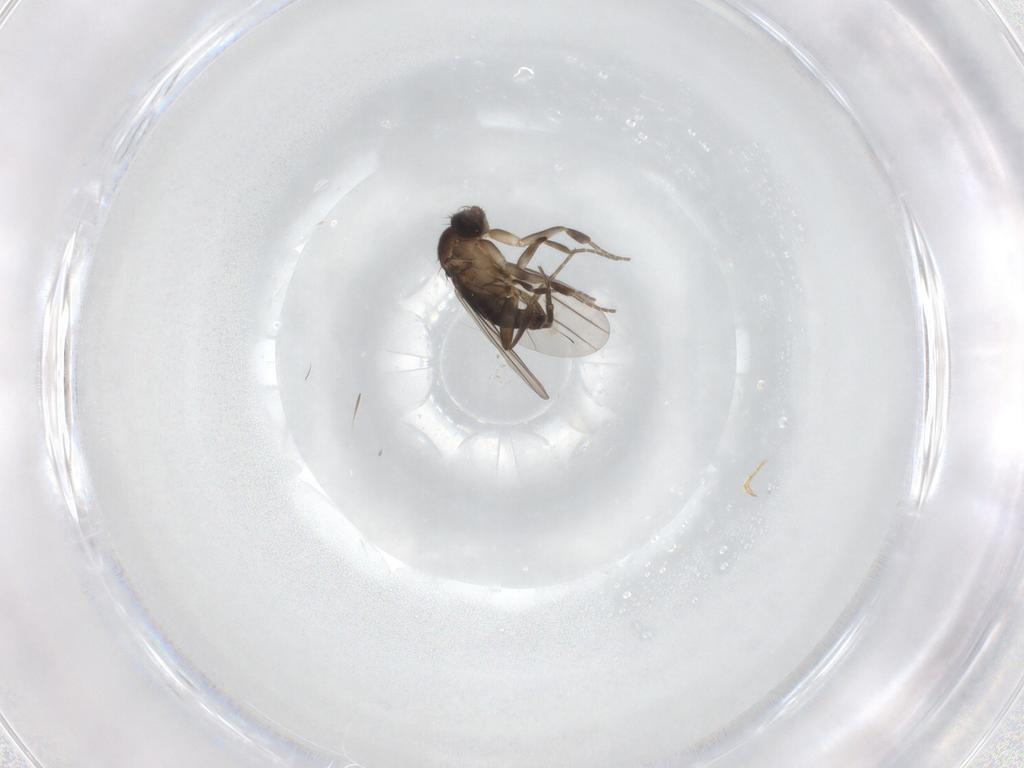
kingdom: Animalia
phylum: Arthropoda
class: Insecta
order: Diptera
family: Phoridae
